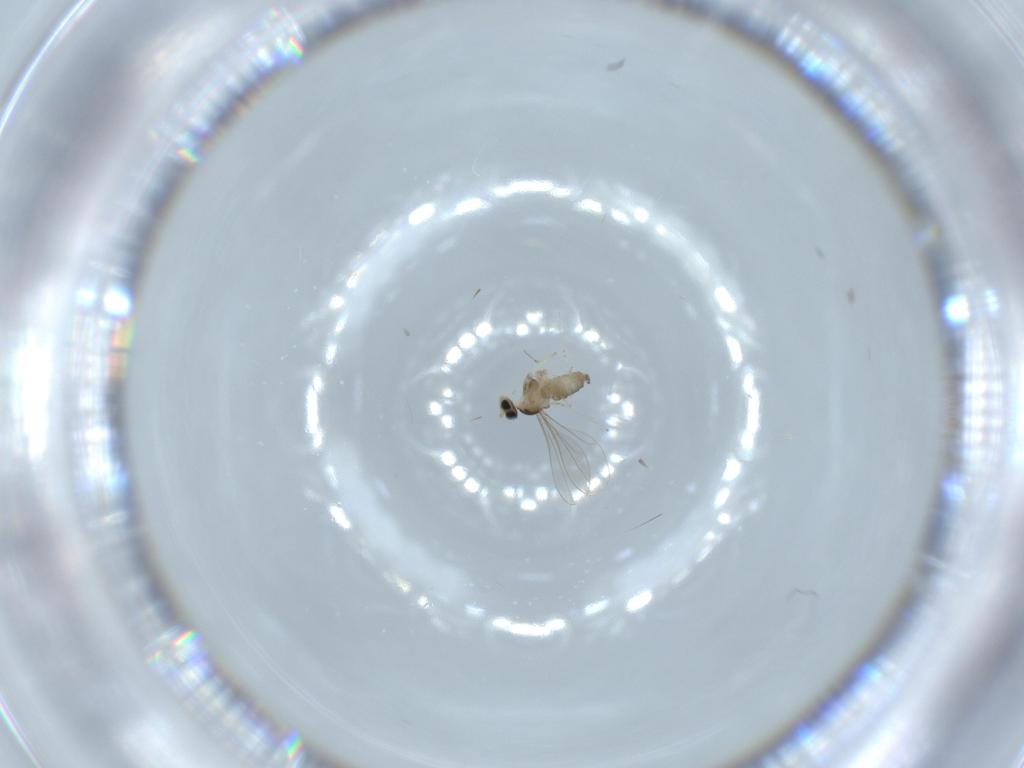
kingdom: Animalia
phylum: Arthropoda
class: Insecta
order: Diptera
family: Cecidomyiidae
